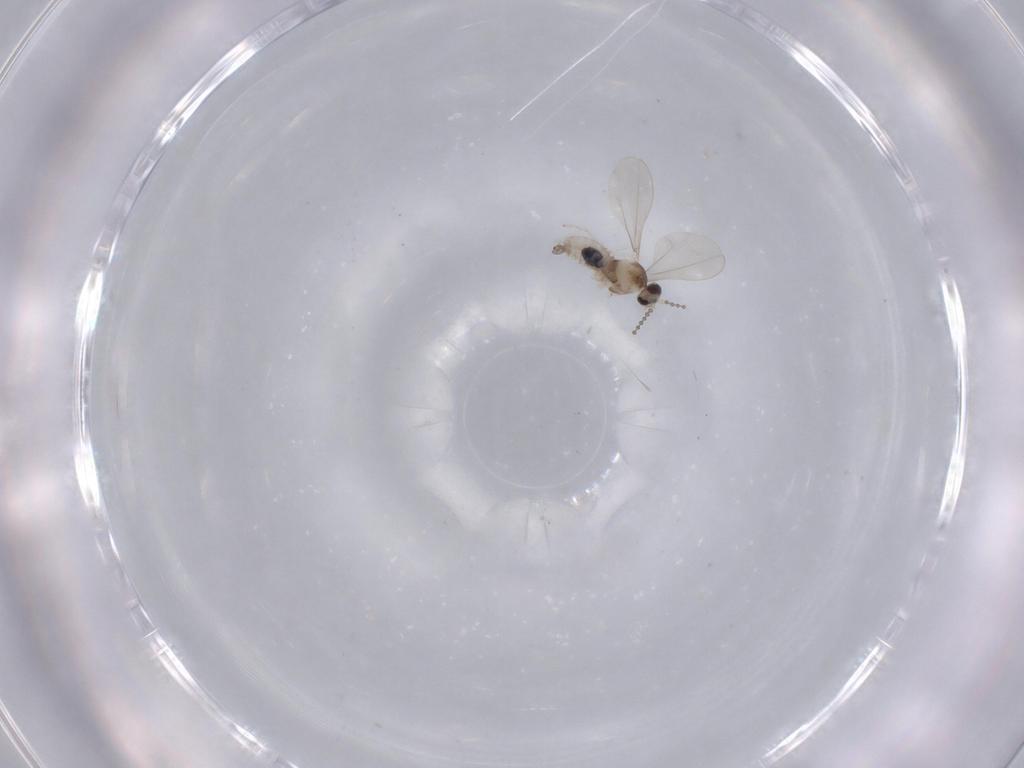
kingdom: Animalia
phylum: Arthropoda
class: Insecta
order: Diptera
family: Cecidomyiidae
